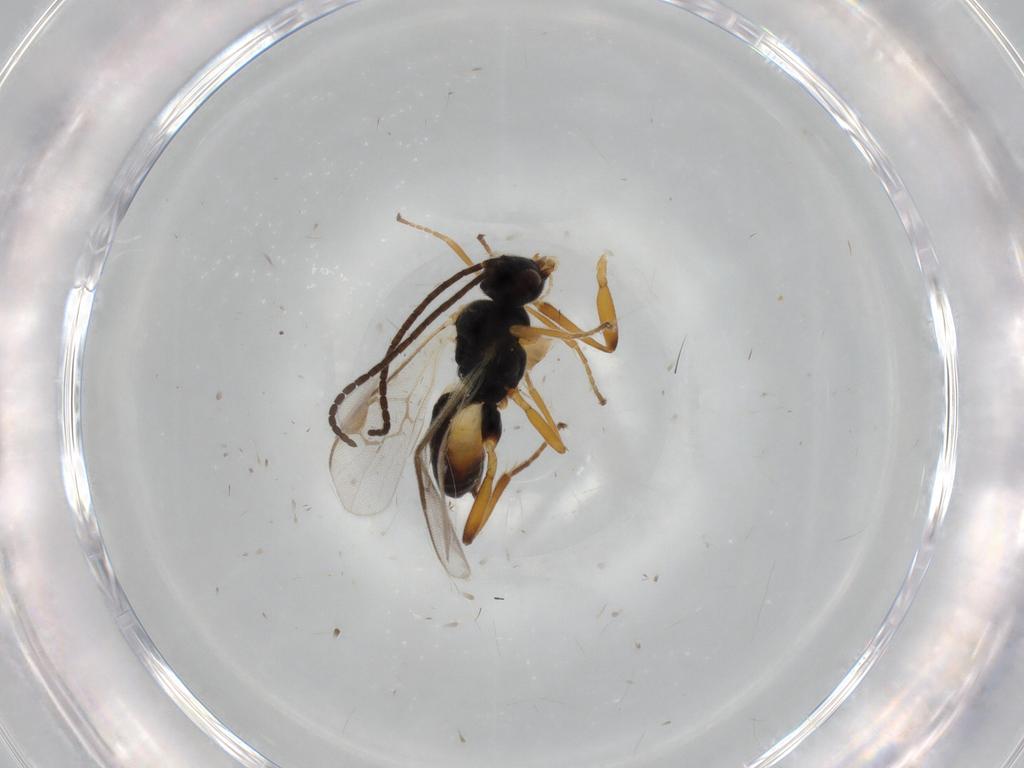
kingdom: Animalia
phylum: Arthropoda
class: Insecta
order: Hymenoptera
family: Braconidae
